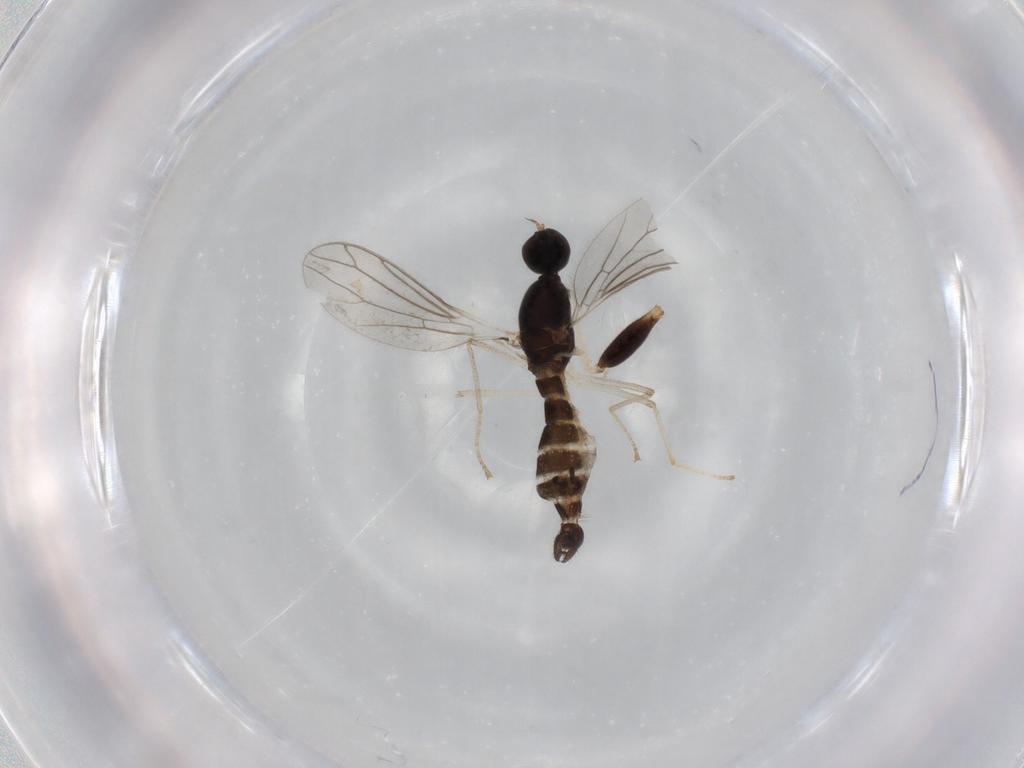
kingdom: Animalia
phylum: Arthropoda
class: Insecta
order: Diptera
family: Empididae
